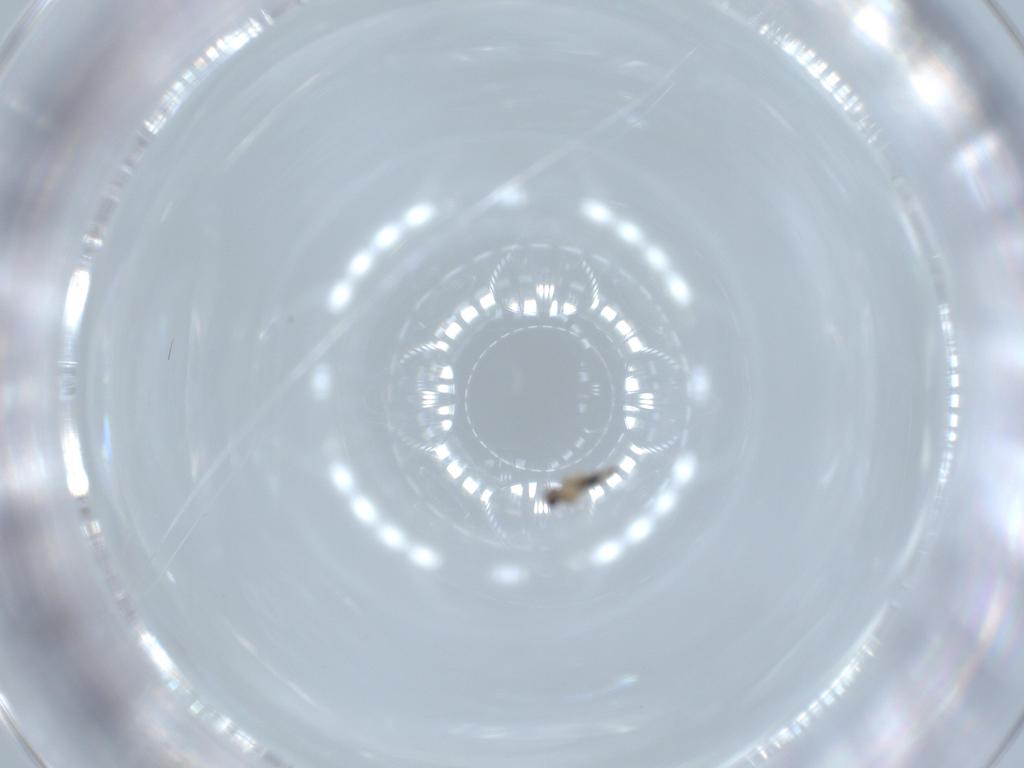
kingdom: Animalia
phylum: Arthropoda
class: Insecta
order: Diptera
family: Cecidomyiidae
